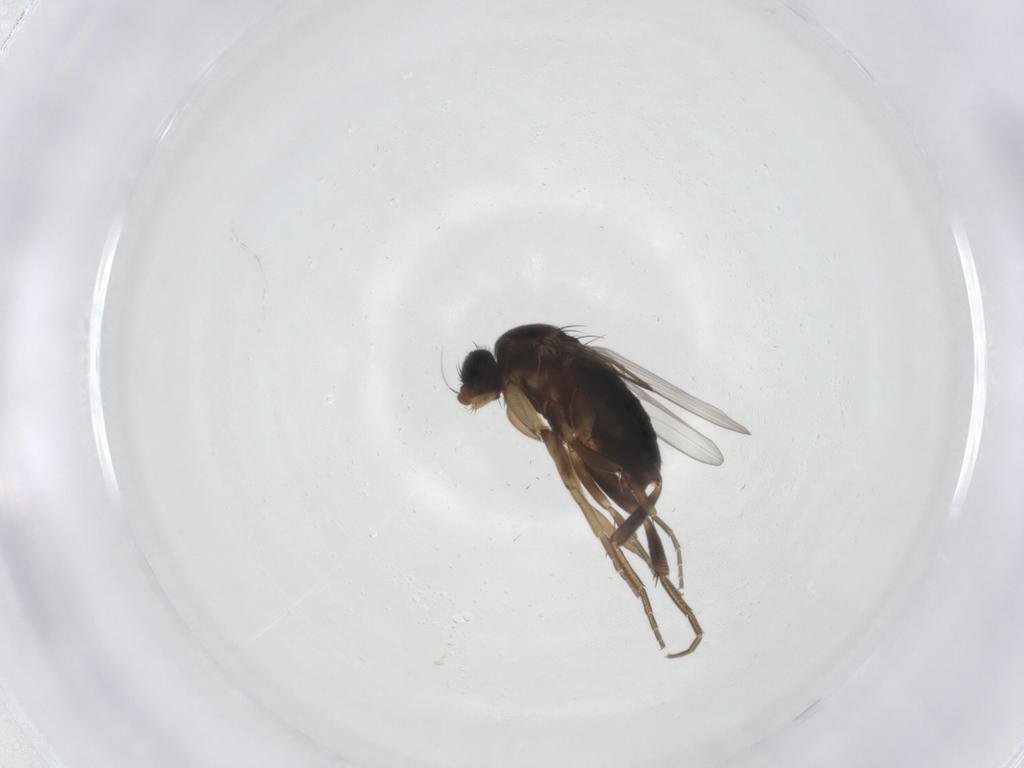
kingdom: Animalia
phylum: Arthropoda
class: Insecta
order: Diptera
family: Phoridae
